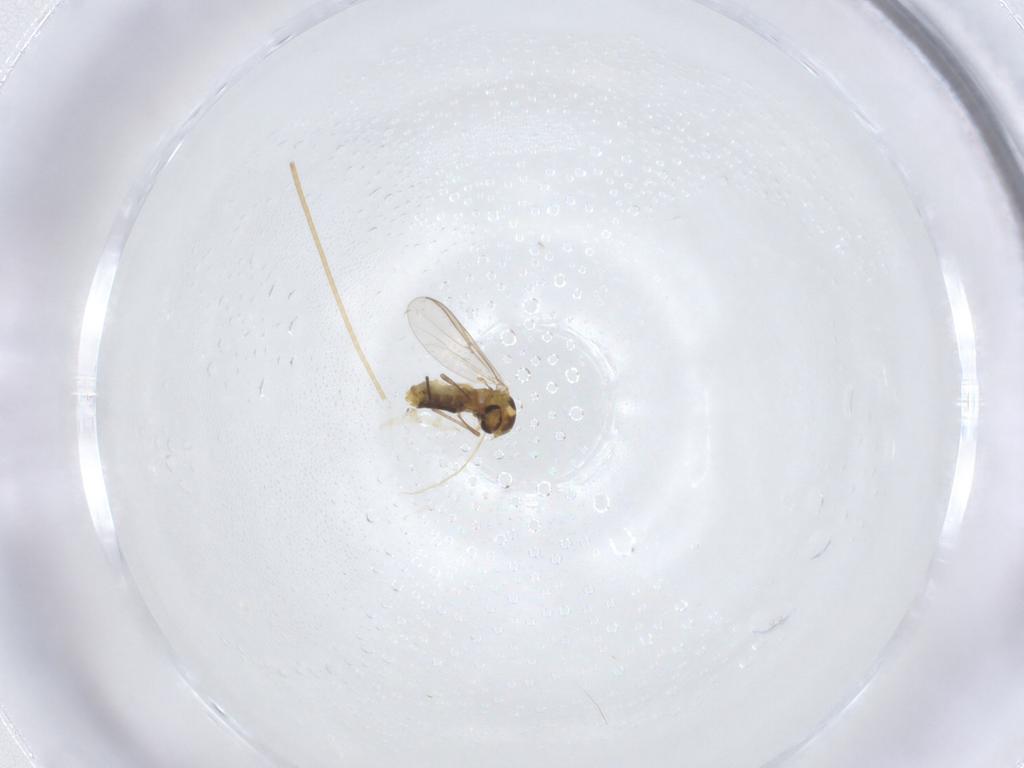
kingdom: Animalia
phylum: Arthropoda
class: Insecta
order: Diptera
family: Chironomidae
